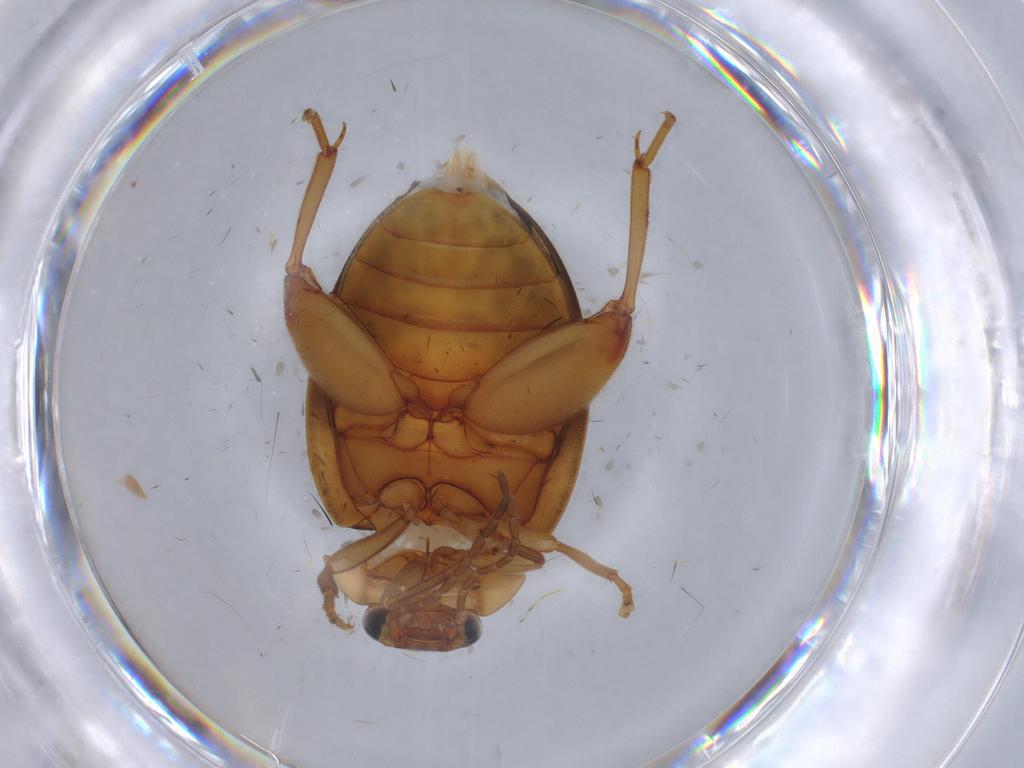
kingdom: Animalia
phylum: Arthropoda
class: Insecta
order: Coleoptera
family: Scirtidae
